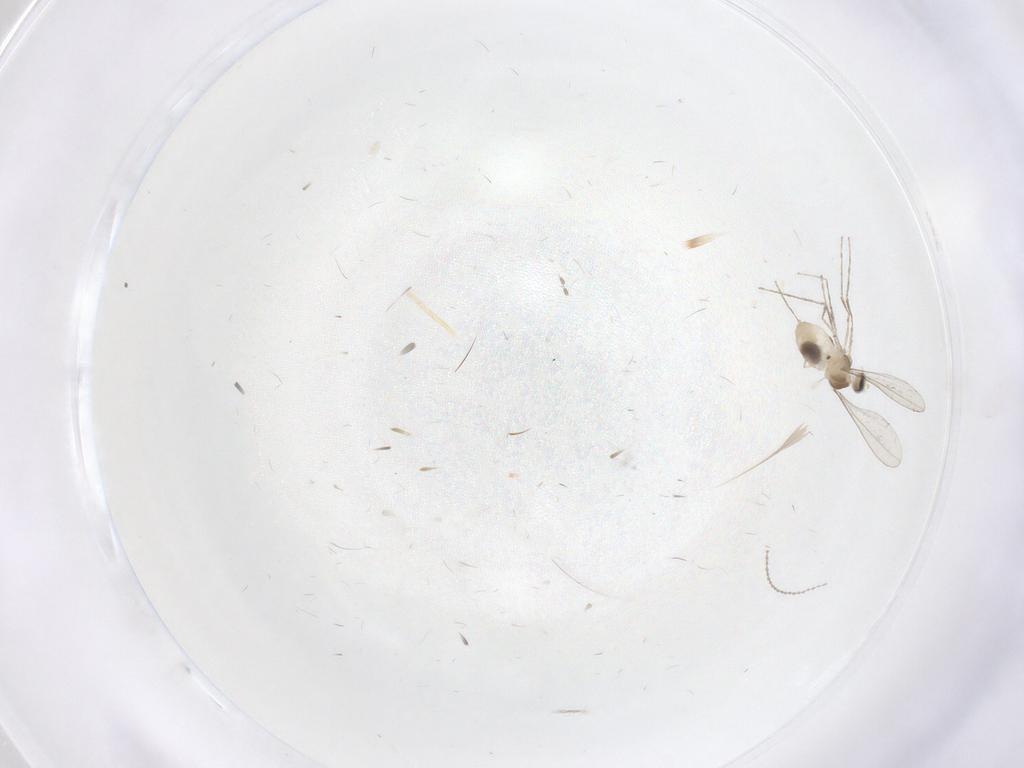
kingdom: Animalia
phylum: Arthropoda
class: Insecta
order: Diptera
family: Cecidomyiidae
